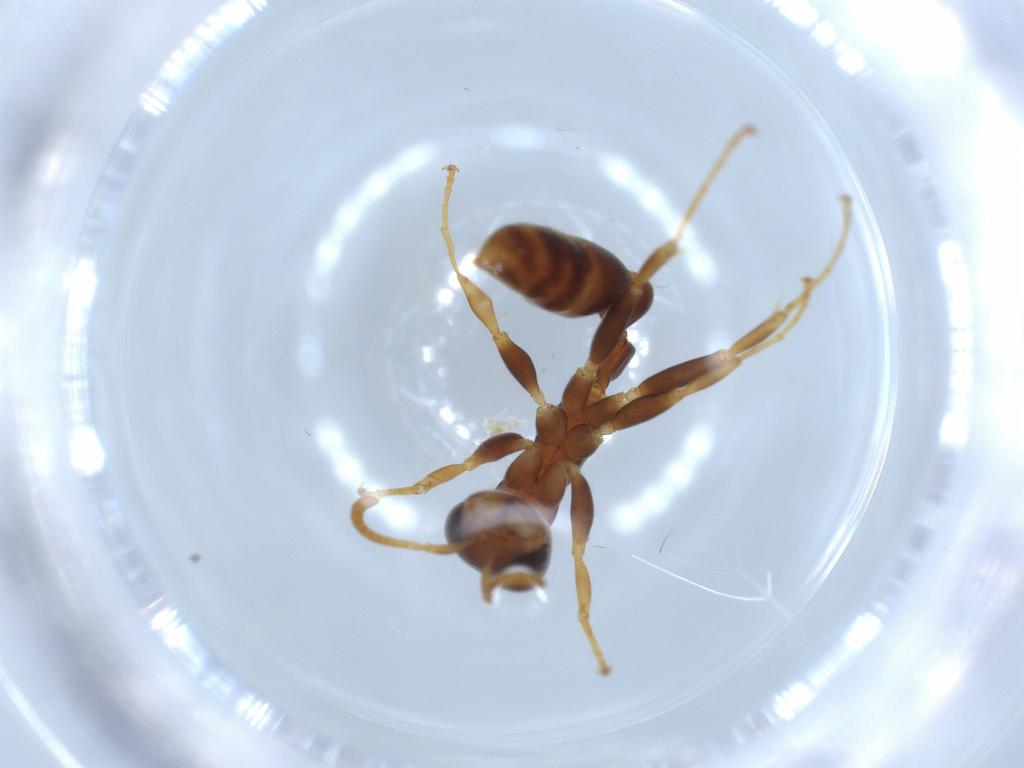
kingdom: Animalia
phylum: Arthropoda
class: Insecta
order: Hymenoptera
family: Formicidae
